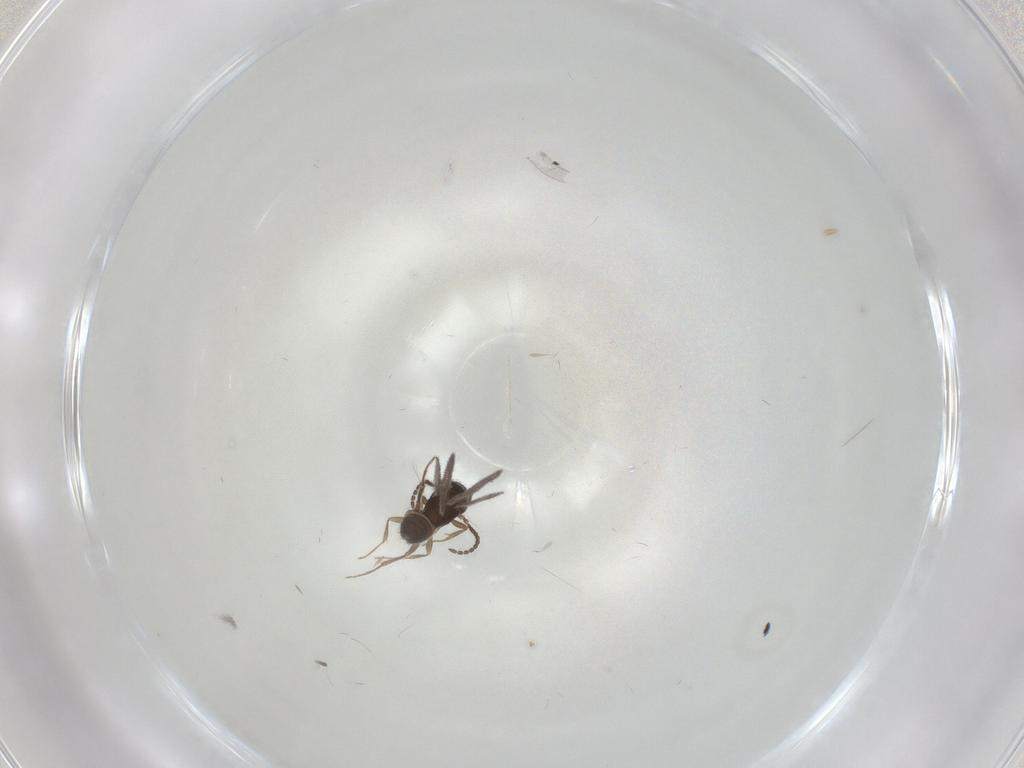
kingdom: Animalia
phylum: Arthropoda
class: Insecta
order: Hymenoptera
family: Bethylidae
